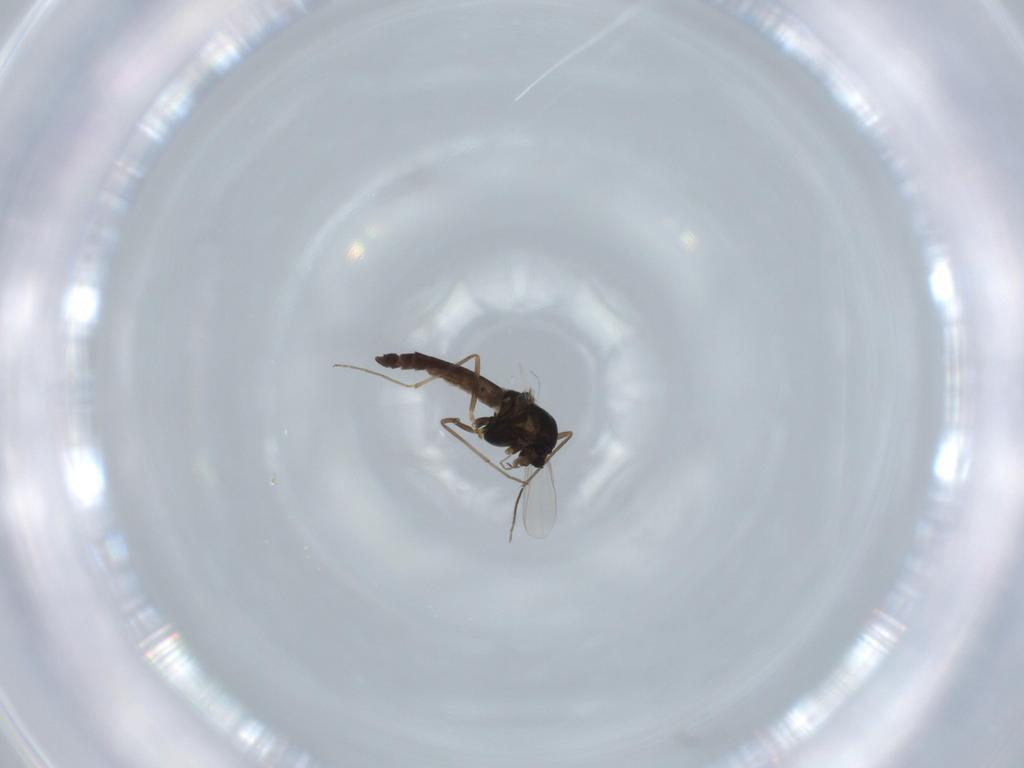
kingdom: Animalia
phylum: Arthropoda
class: Insecta
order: Diptera
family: Chironomidae
